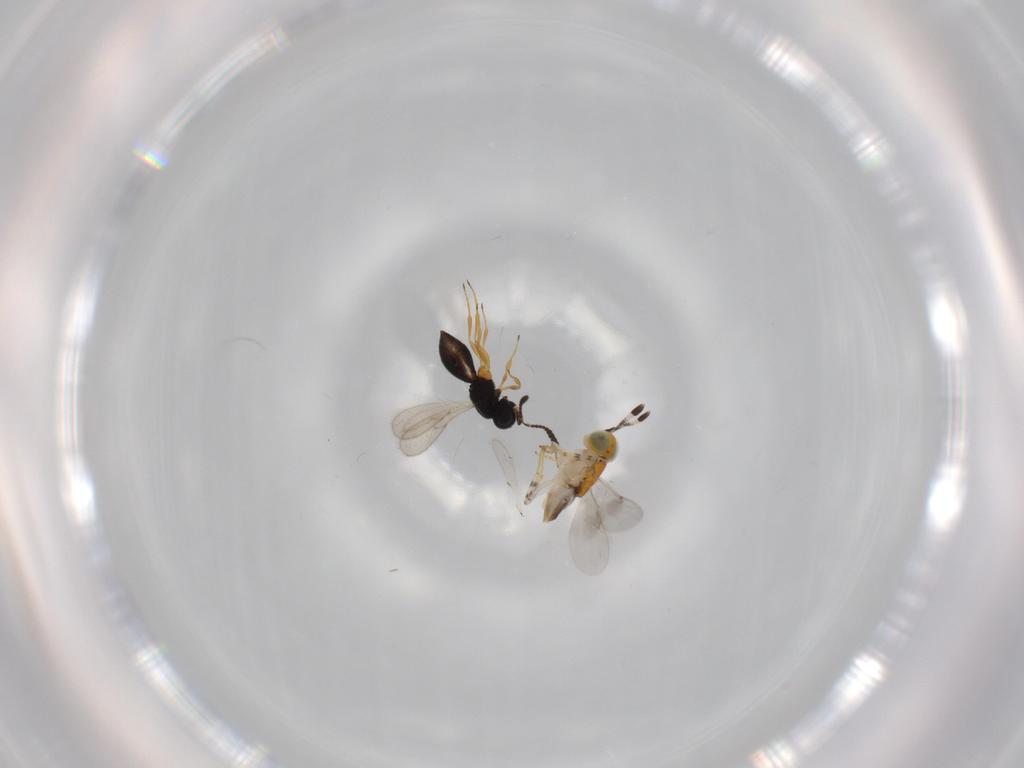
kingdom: Animalia
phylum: Arthropoda
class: Insecta
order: Hymenoptera
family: Scelionidae
